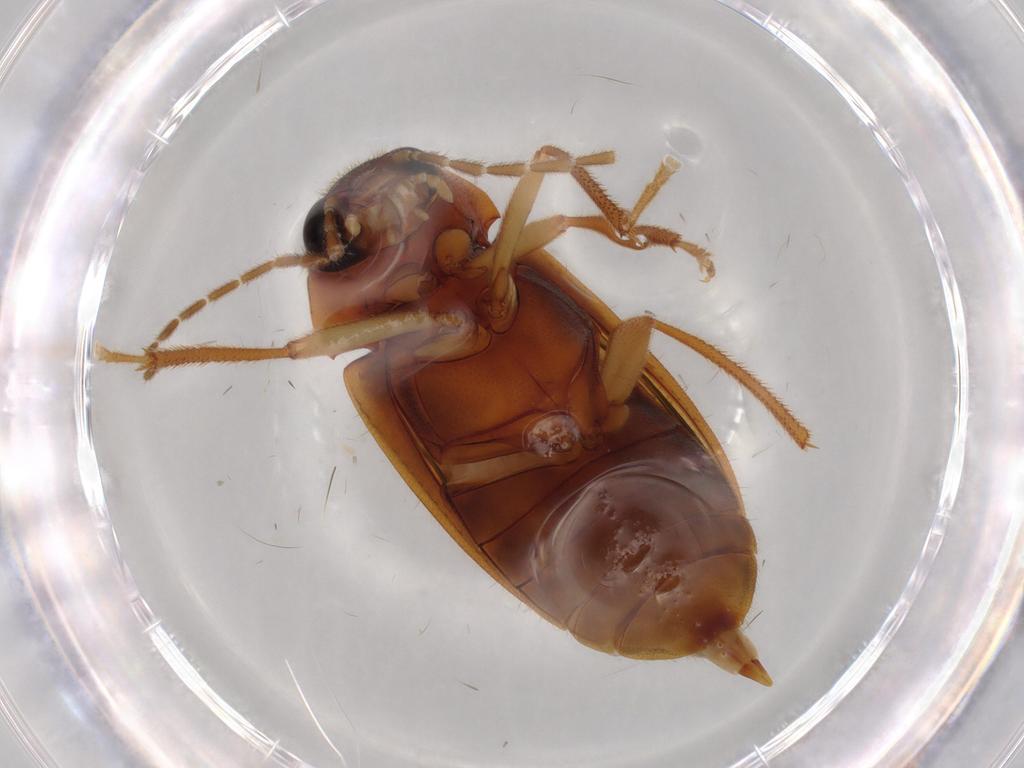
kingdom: Animalia
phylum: Arthropoda
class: Insecta
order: Coleoptera
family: Ptilodactylidae
